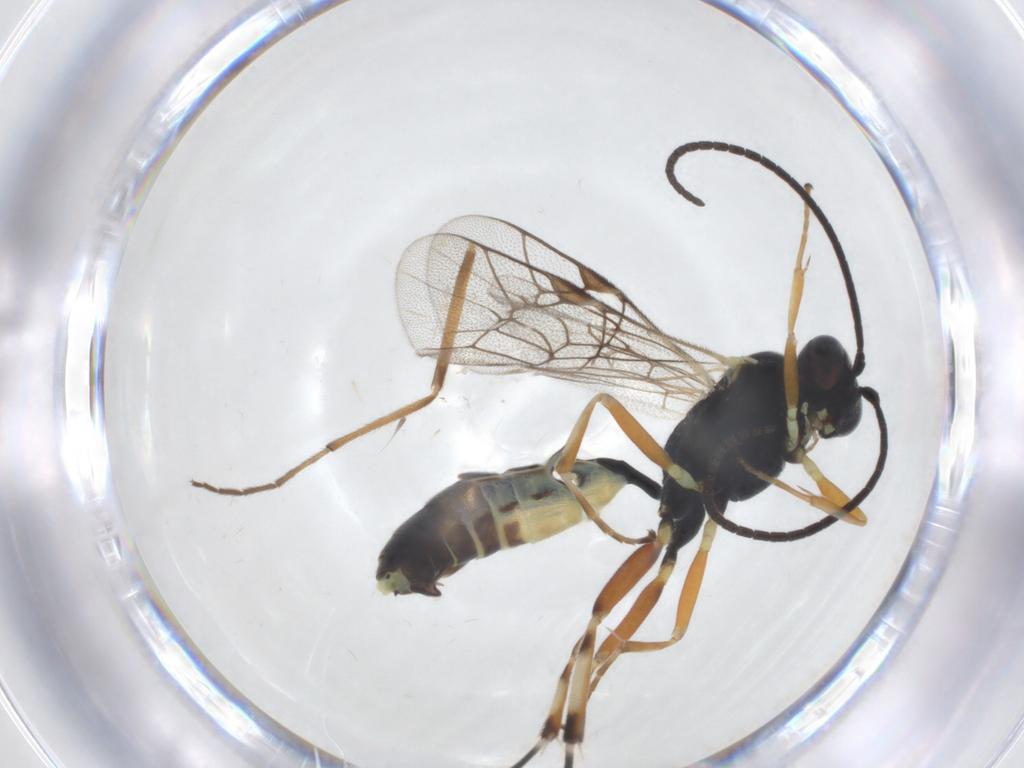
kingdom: Animalia
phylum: Arthropoda
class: Insecta
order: Hymenoptera
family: Ichneumonidae
